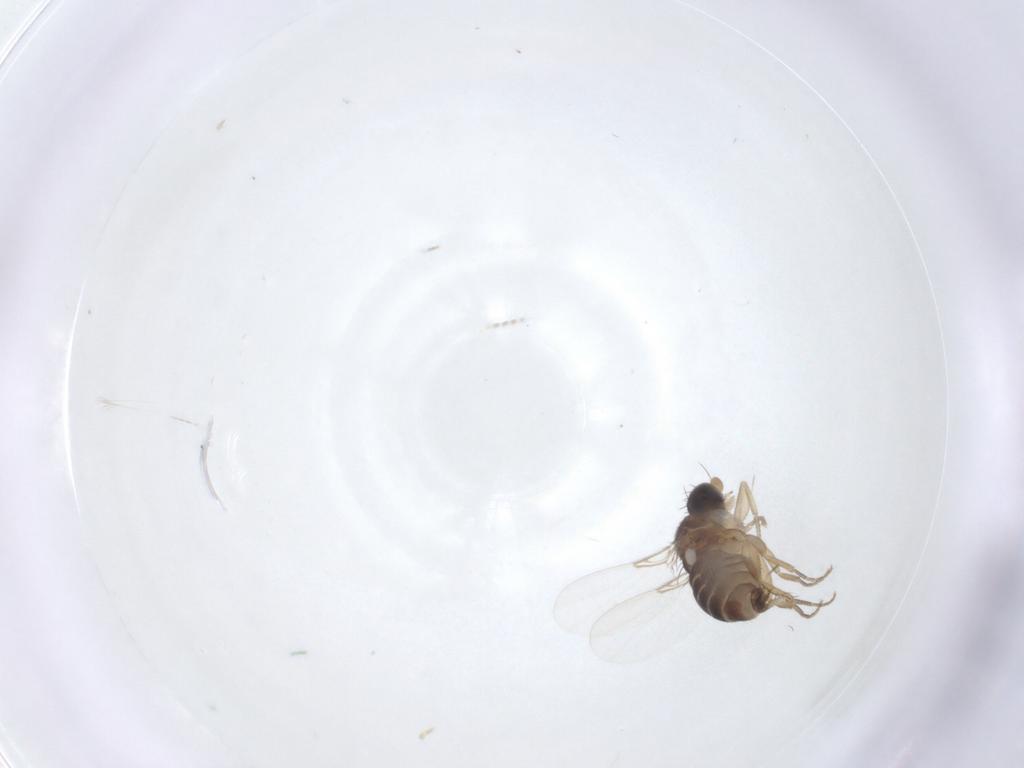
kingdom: Animalia
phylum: Arthropoda
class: Insecta
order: Diptera
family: Phoridae
